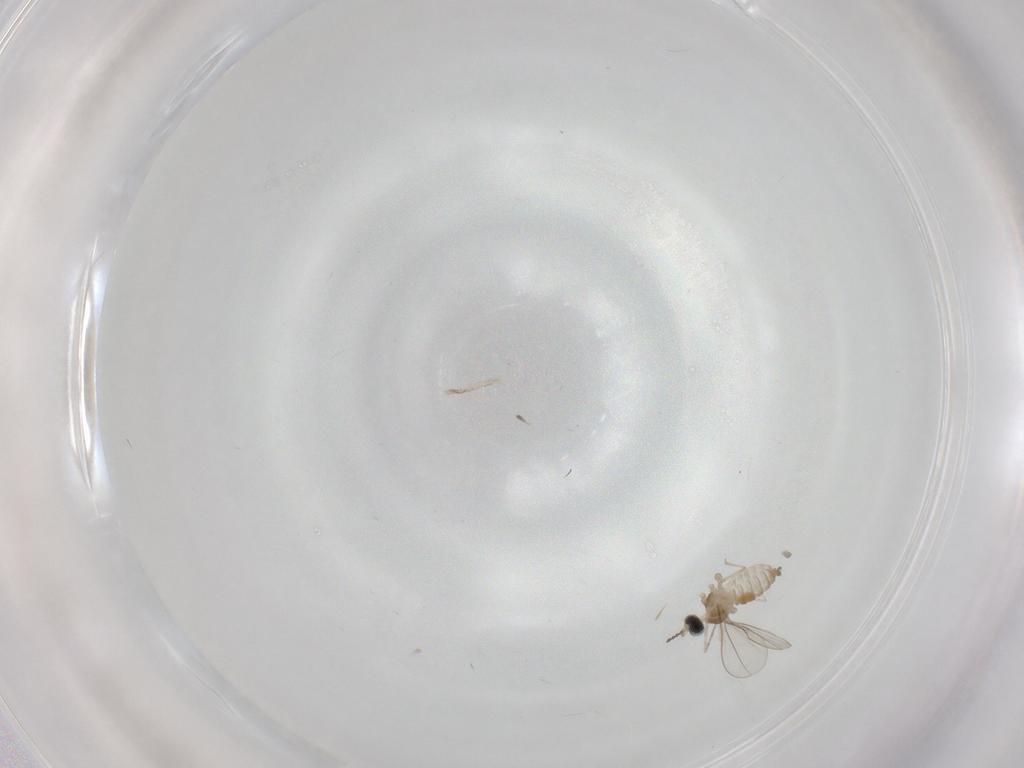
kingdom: Animalia
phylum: Arthropoda
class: Insecta
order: Diptera
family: Cecidomyiidae
